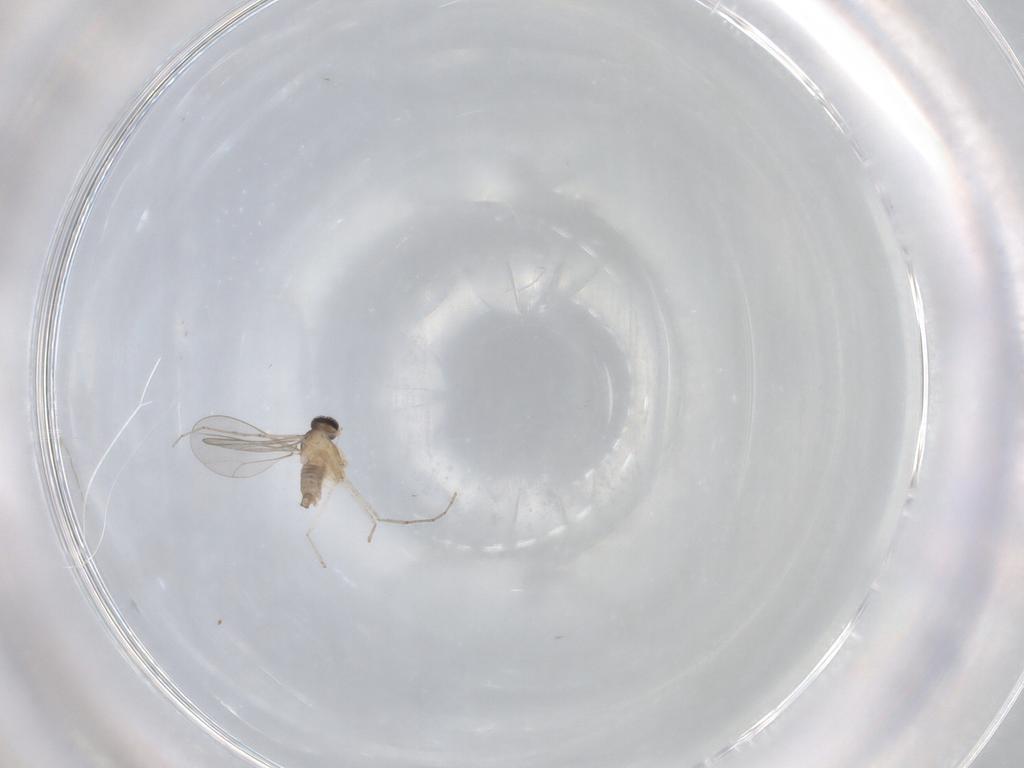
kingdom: Animalia
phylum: Arthropoda
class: Insecta
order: Diptera
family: Cecidomyiidae
